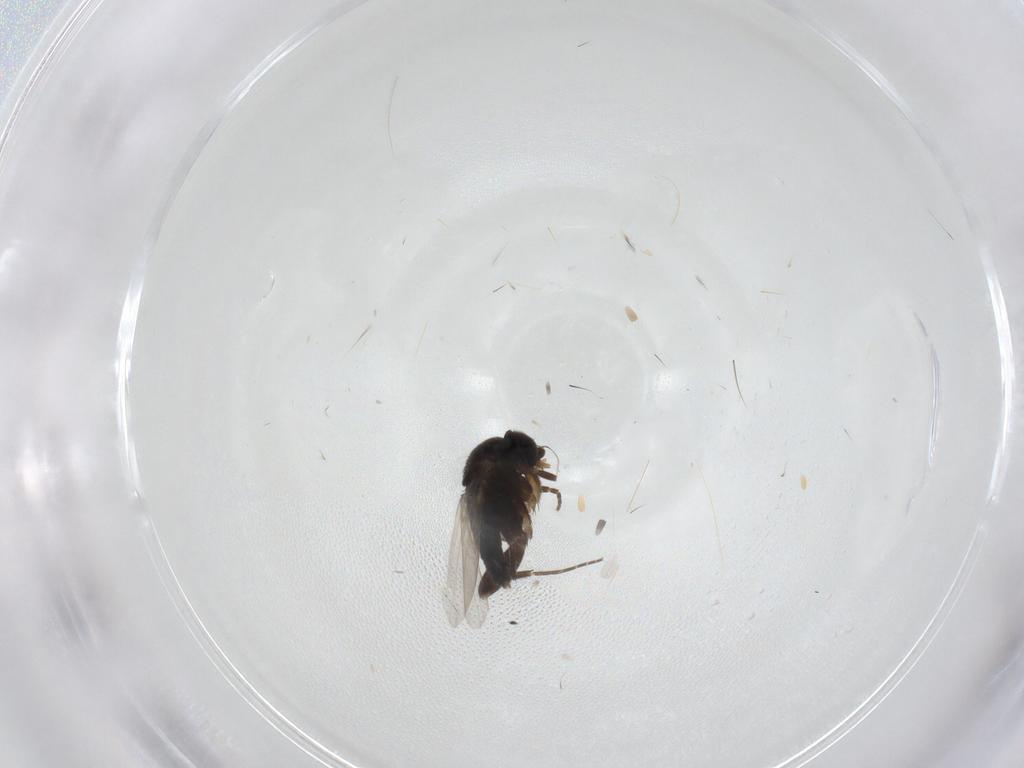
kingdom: Animalia
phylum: Arthropoda
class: Insecta
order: Diptera
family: Phoridae
